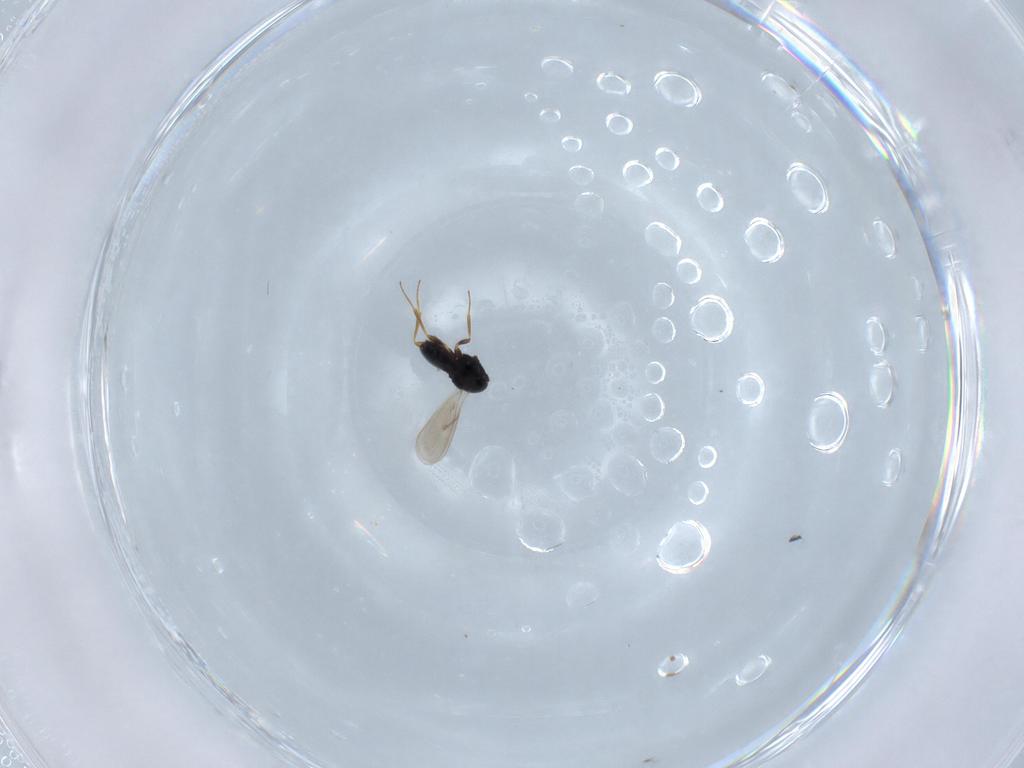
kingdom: Animalia
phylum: Arthropoda
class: Insecta
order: Hymenoptera
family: Scelionidae
